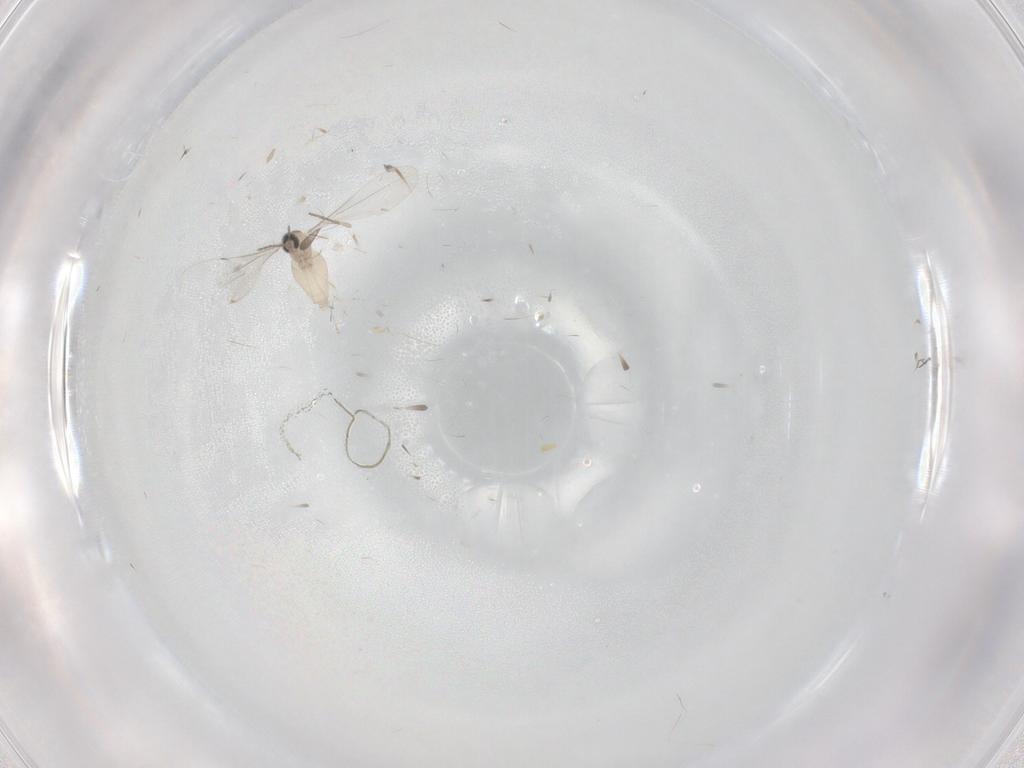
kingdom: Animalia
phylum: Arthropoda
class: Insecta
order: Diptera
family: Cecidomyiidae
